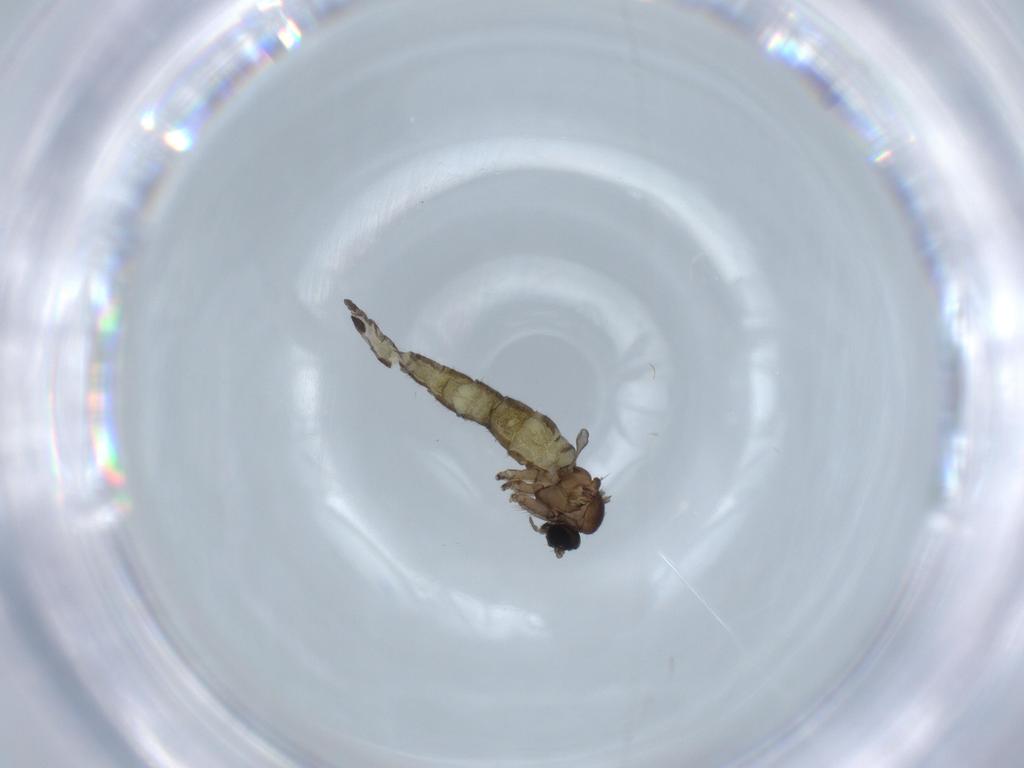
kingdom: Animalia
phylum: Arthropoda
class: Insecta
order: Diptera
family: Sciaridae
